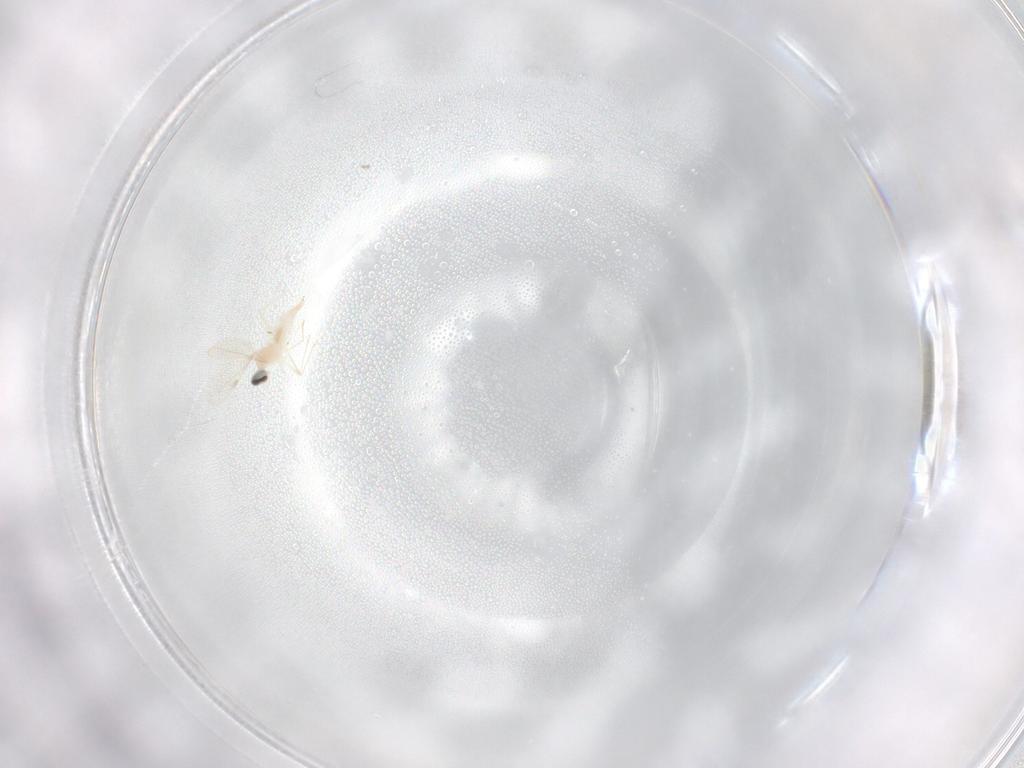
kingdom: Animalia
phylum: Arthropoda
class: Insecta
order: Diptera
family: Cecidomyiidae
